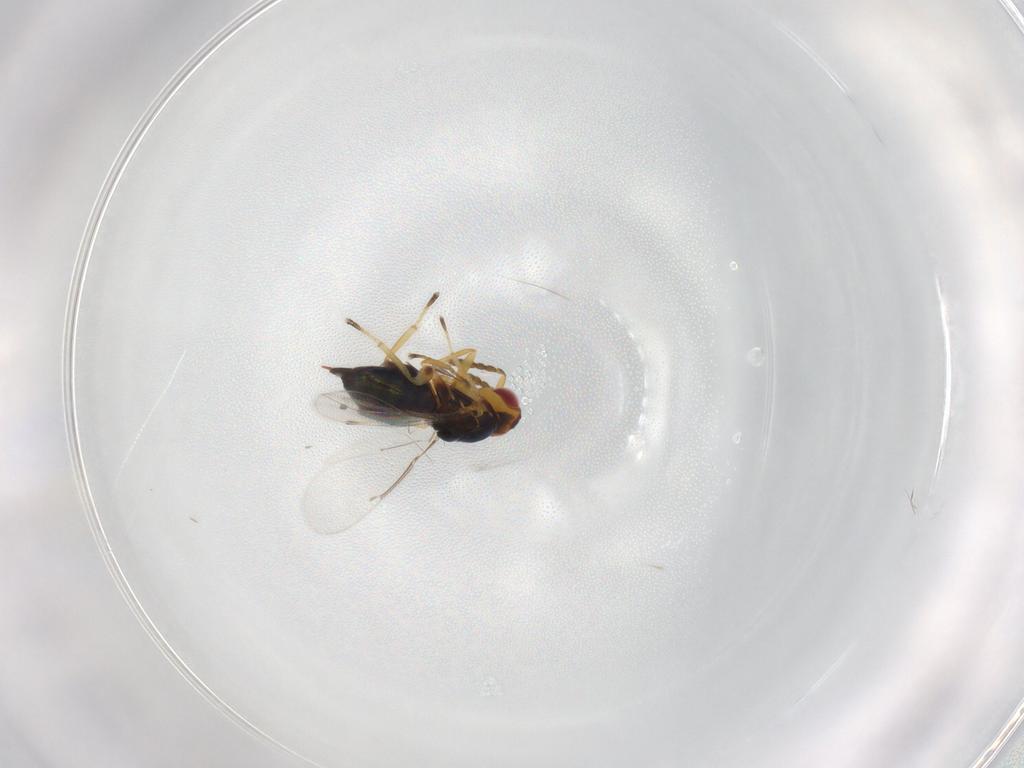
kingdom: Animalia
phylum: Arthropoda
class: Insecta
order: Hymenoptera
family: Eulophidae
